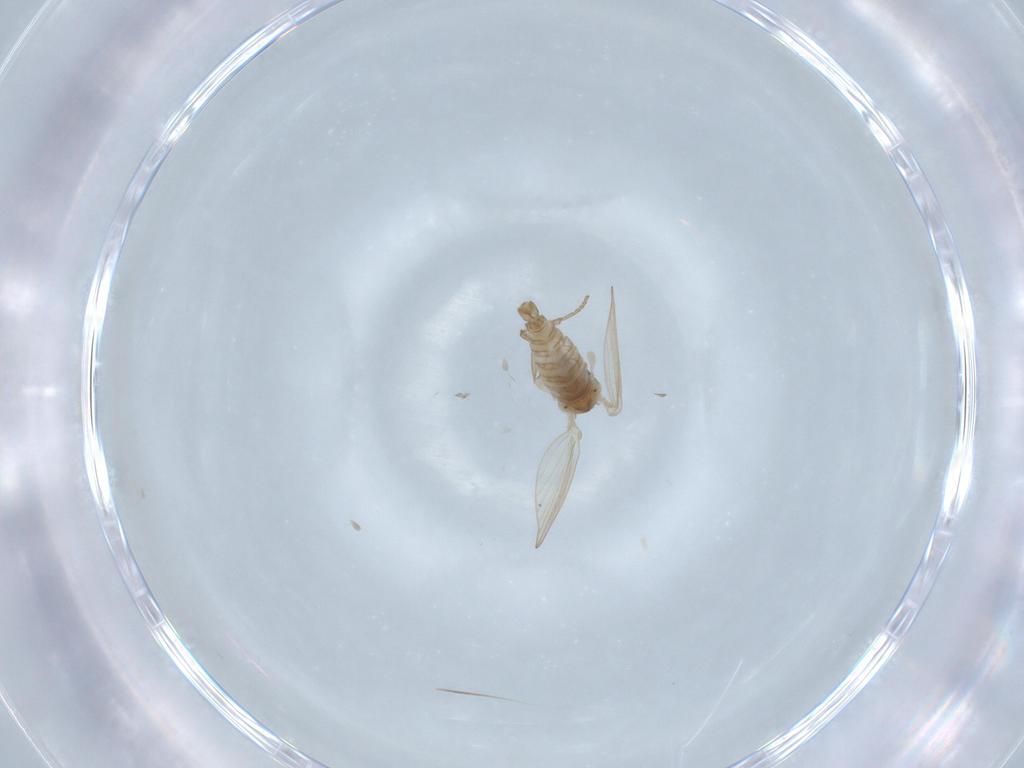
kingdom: Animalia
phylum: Arthropoda
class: Insecta
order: Diptera
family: Psychodidae
